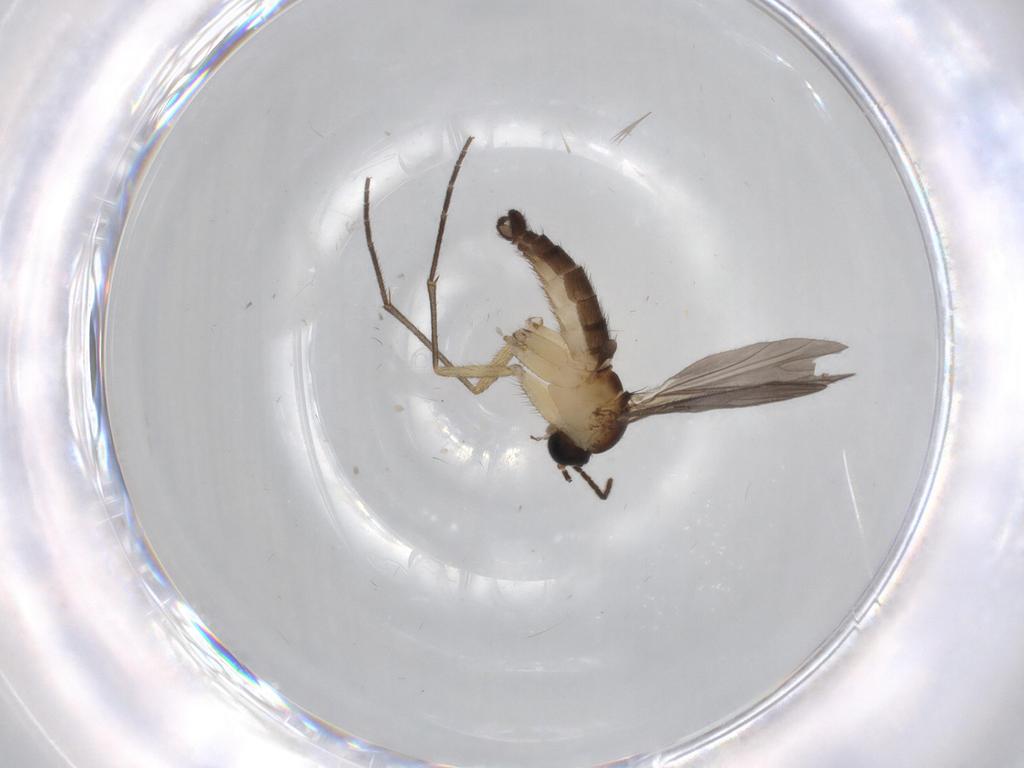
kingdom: Animalia
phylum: Arthropoda
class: Insecta
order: Diptera
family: Sciaridae
